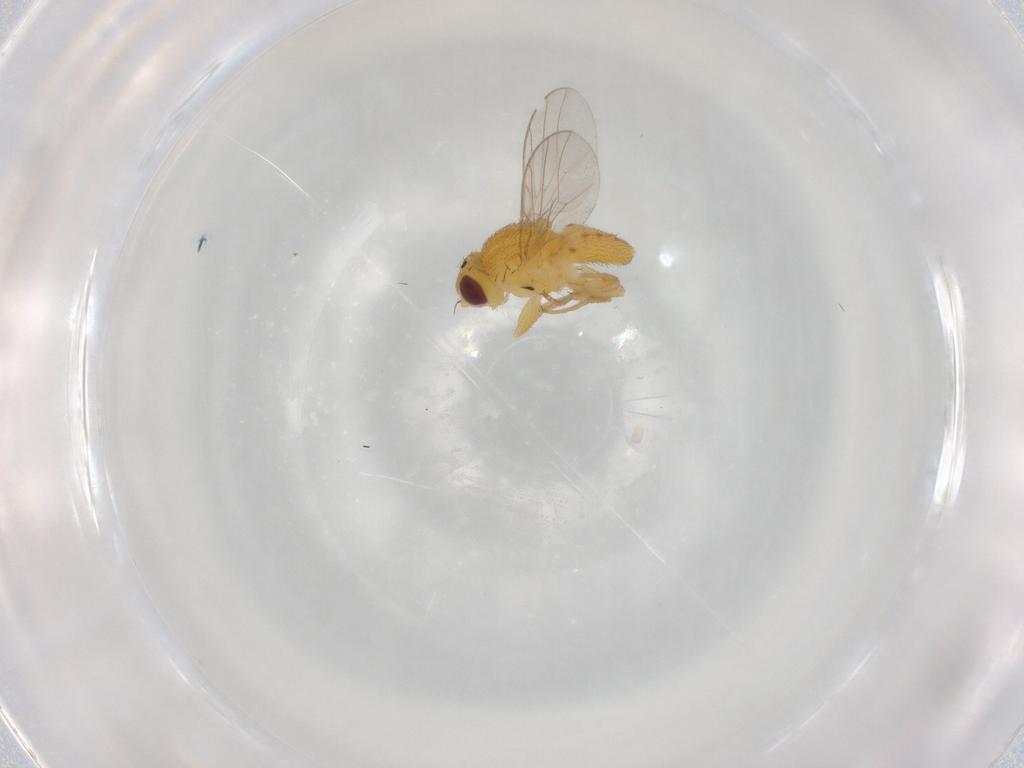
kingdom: Animalia
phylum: Arthropoda
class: Insecta
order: Diptera
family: Chloropidae
